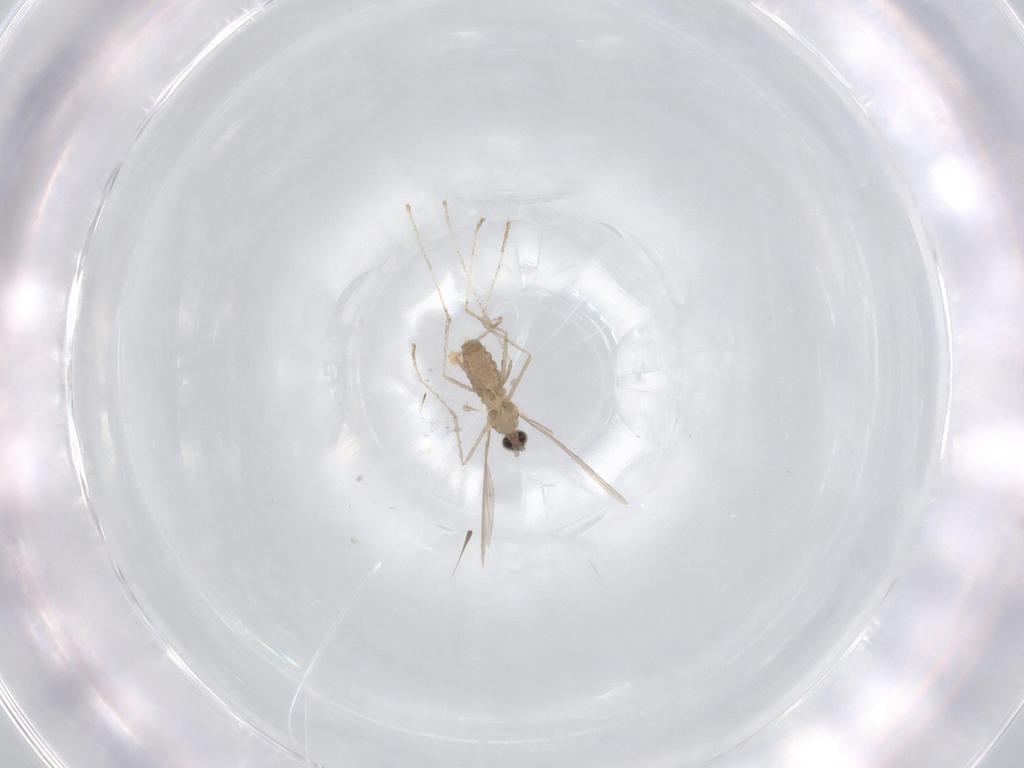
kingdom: Animalia
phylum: Arthropoda
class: Insecta
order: Diptera
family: Cecidomyiidae
